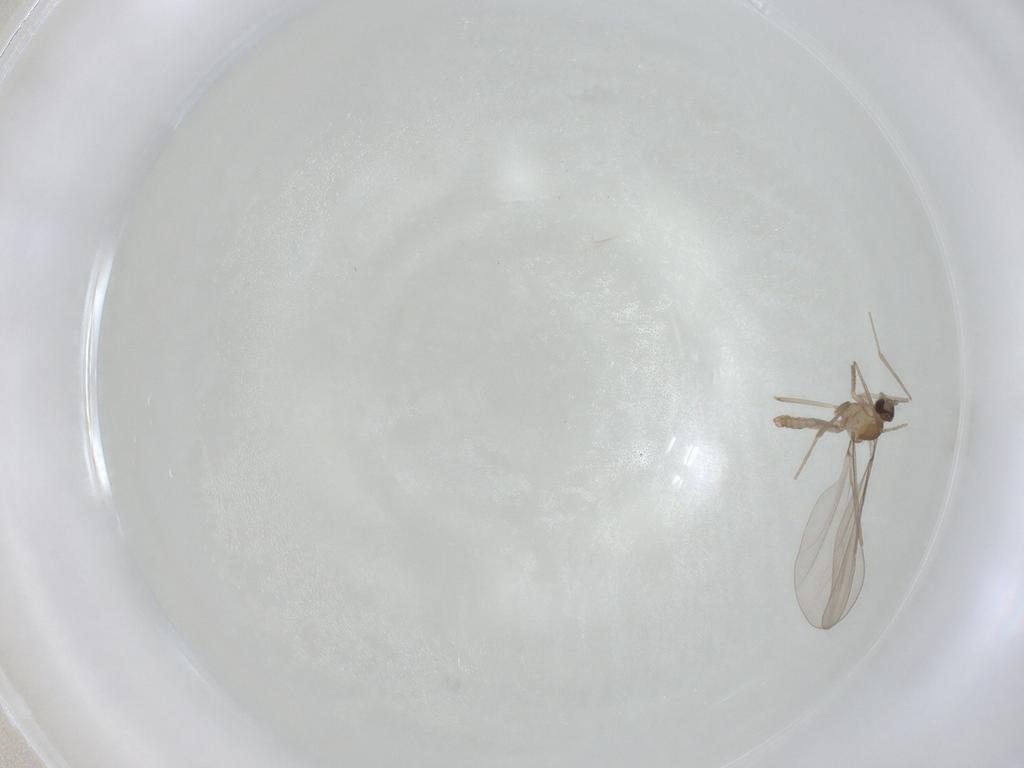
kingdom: Animalia
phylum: Arthropoda
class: Insecta
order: Diptera
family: Cecidomyiidae
